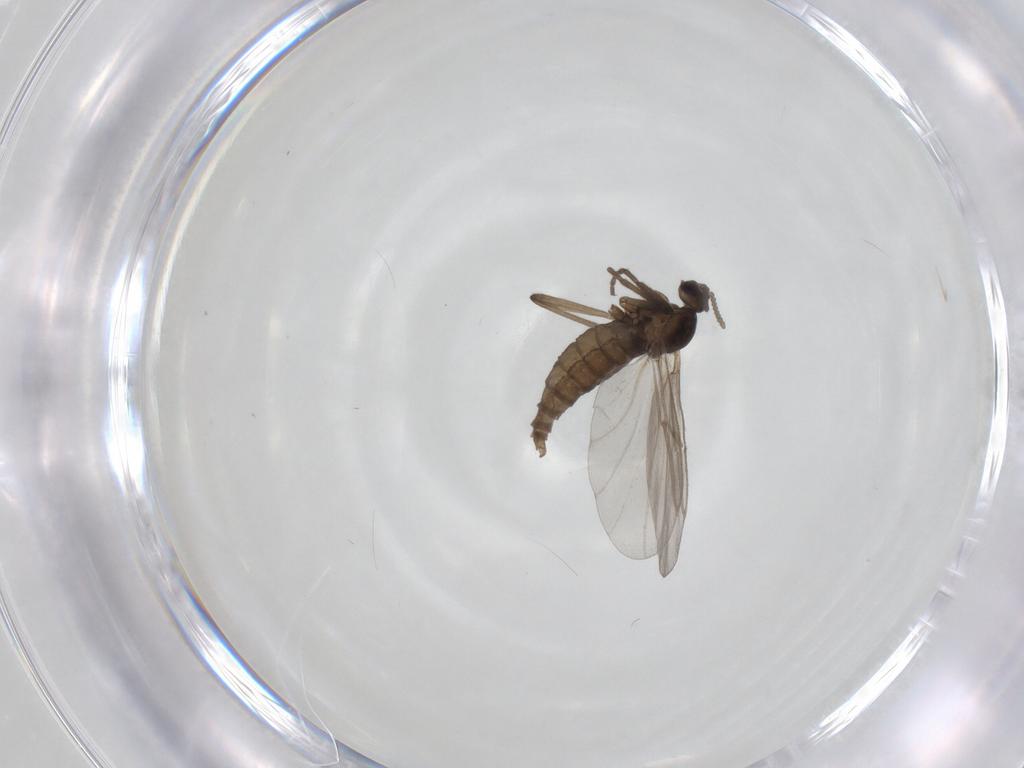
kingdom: Animalia
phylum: Arthropoda
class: Insecta
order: Diptera
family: Cecidomyiidae
